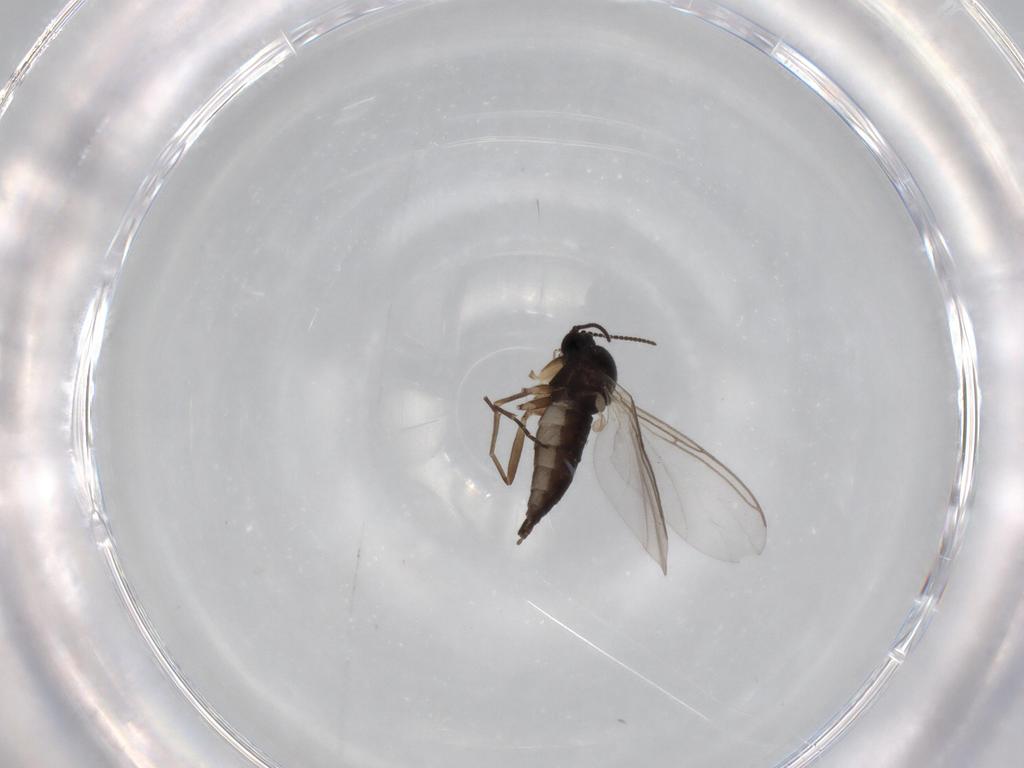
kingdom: Animalia
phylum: Arthropoda
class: Insecta
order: Diptera
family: Sciaridae
